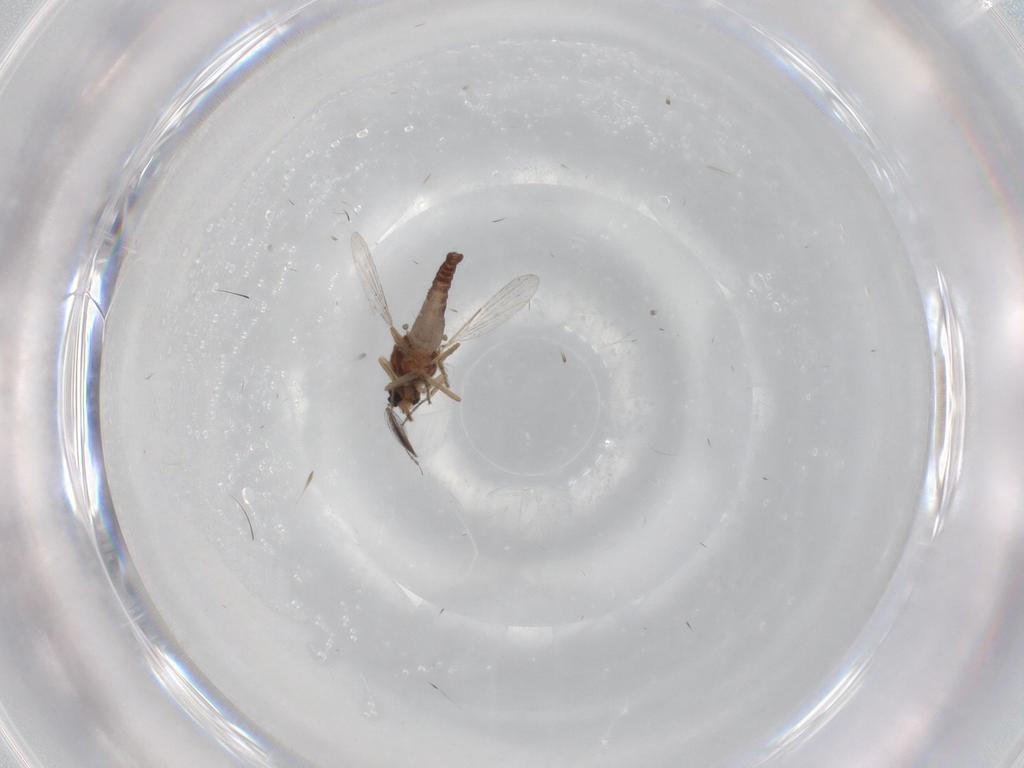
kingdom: Animalia
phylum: Arthropoda
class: Insecta
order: Diptera
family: Ceratopogonidae
